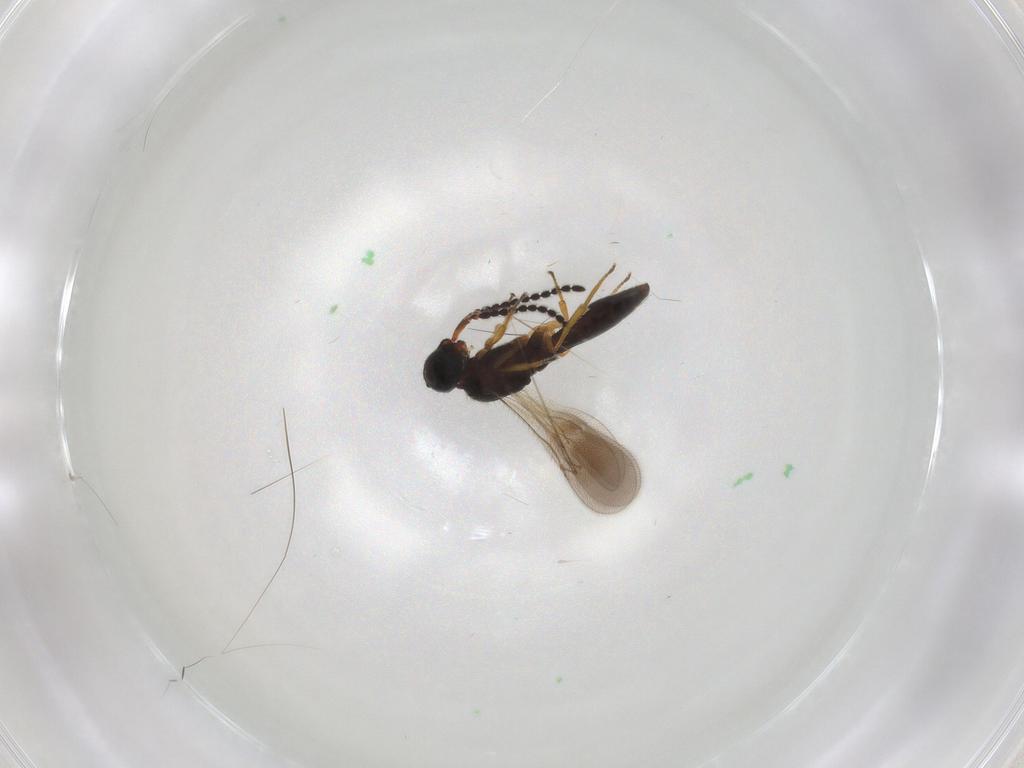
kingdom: Animalia
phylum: Arthropoda
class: Insecta
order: Hymenoptera
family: Scelionidae
